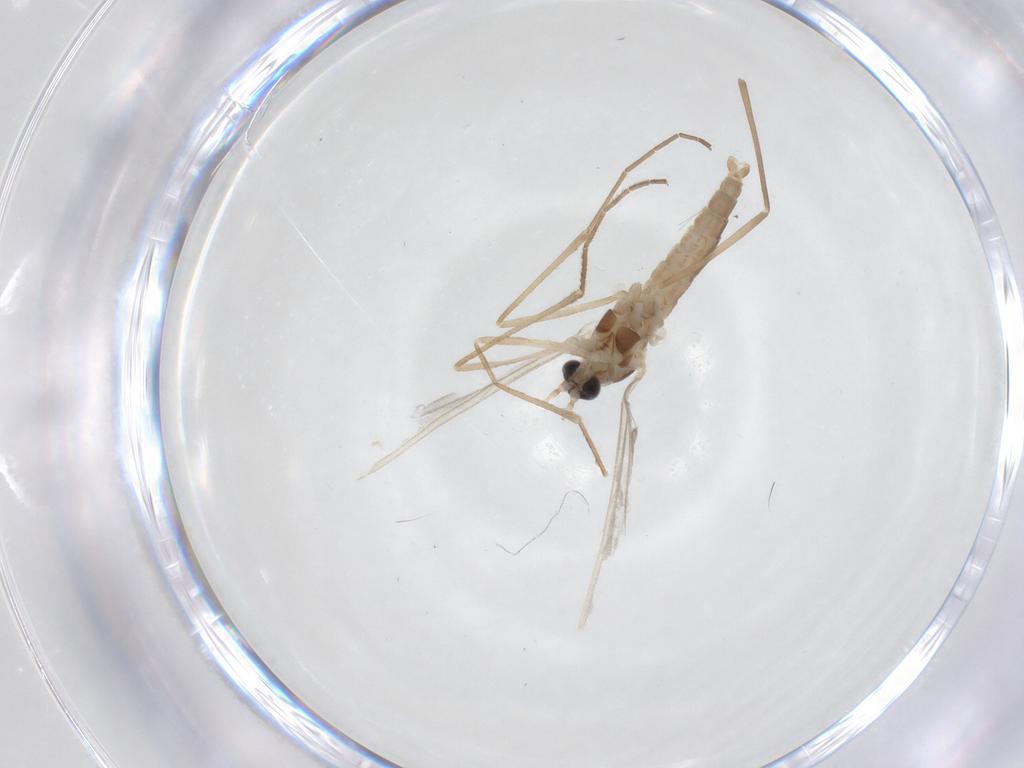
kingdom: Animalia
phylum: Arthropoda
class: Insecta
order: Diptera
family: Cecidomyiidae
